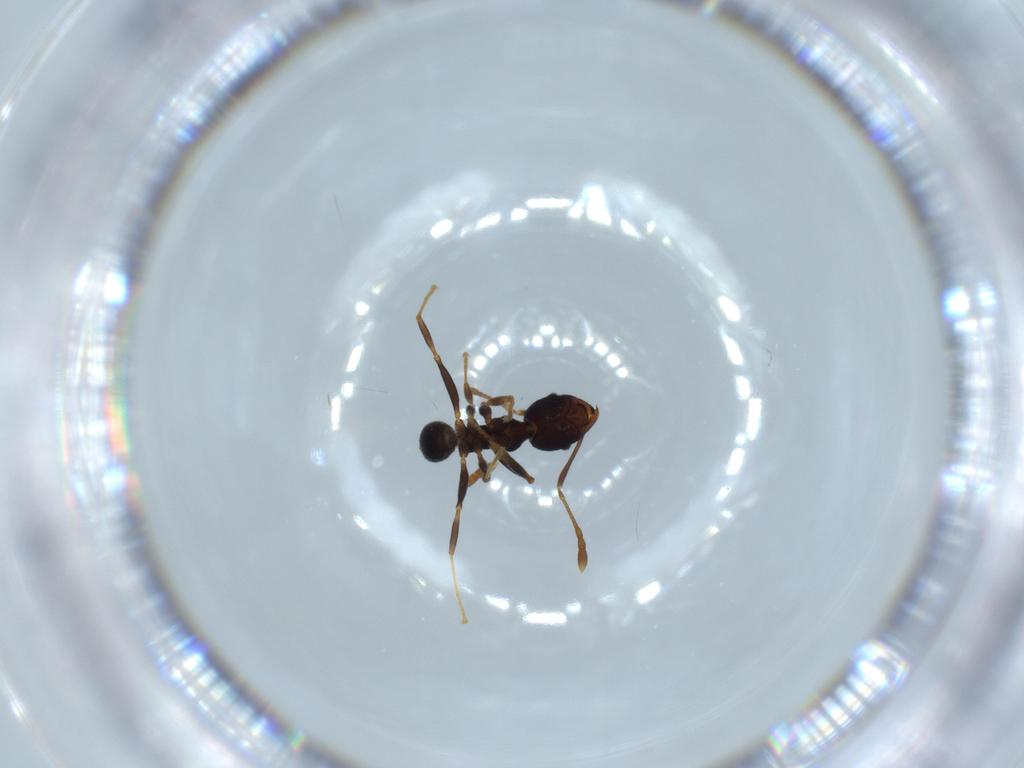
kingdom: Animalia
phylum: Arthropoda
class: Insecta
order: Hymenoptera
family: Formicidae
